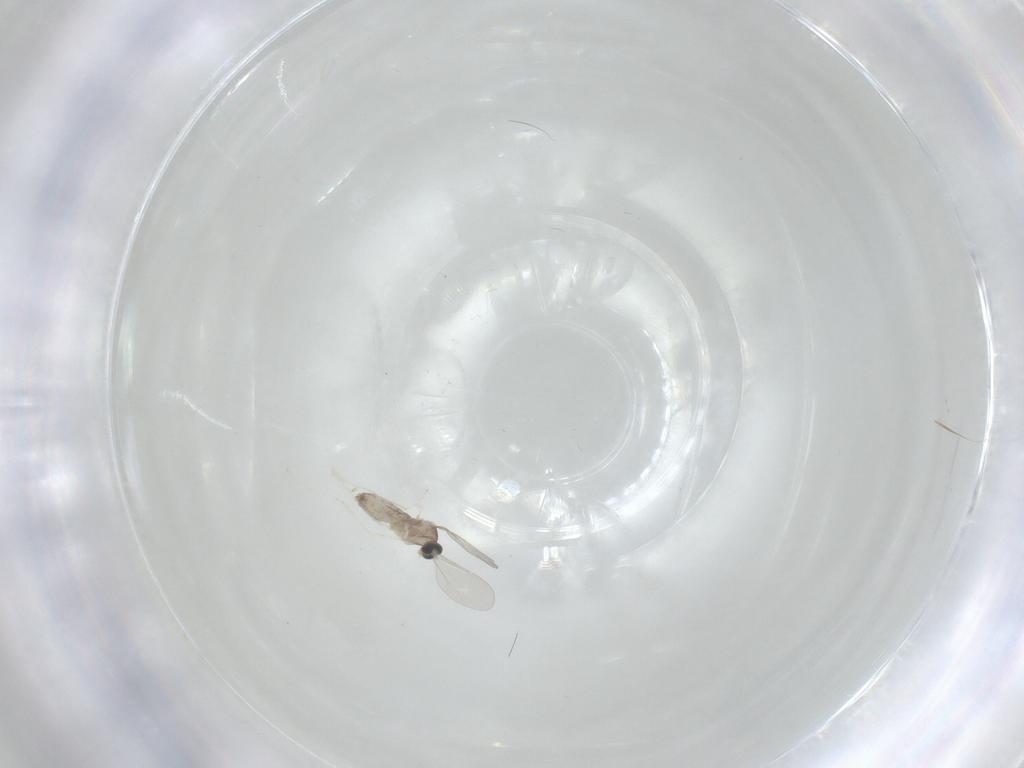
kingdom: Animalia
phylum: Arthropoda
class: Insecta
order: Diptera
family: Cecidomyiidae
